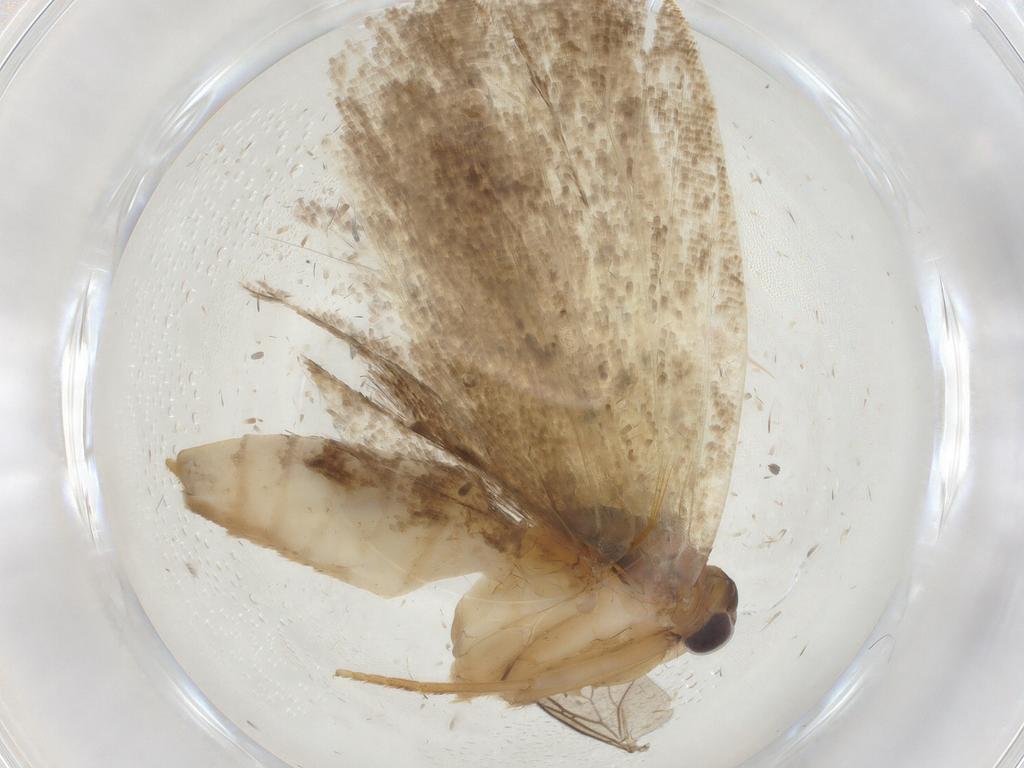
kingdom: Animalia
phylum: Arthropoda
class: Insecta
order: Lepidoptera
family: Tortricidae
